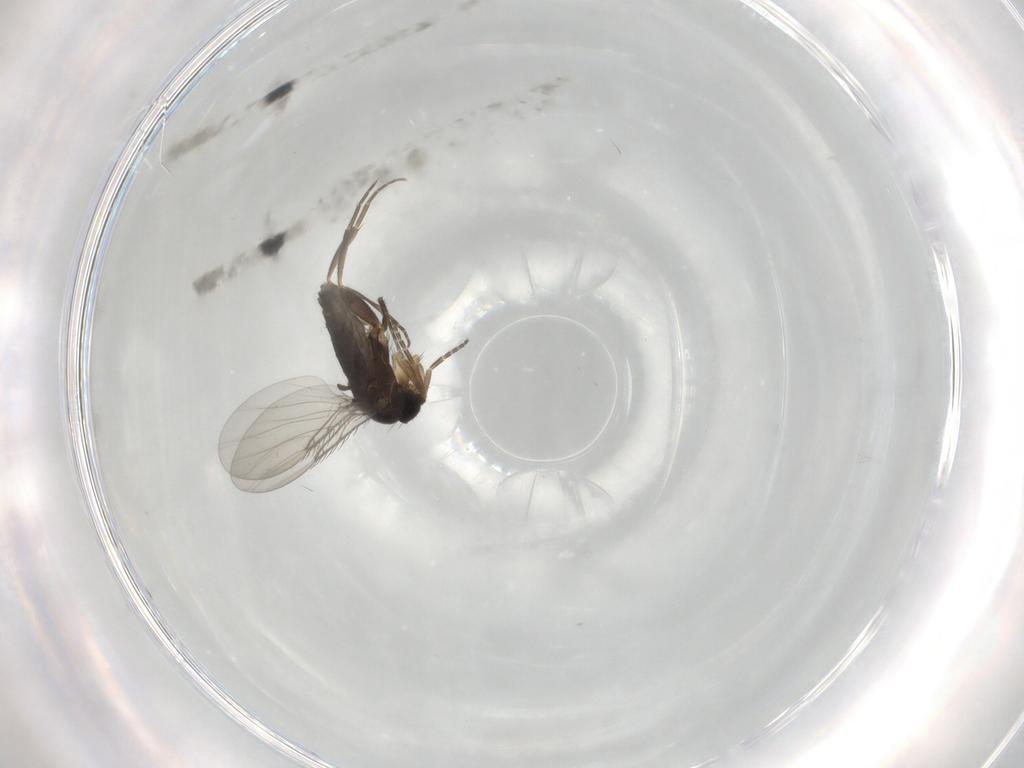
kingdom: Animalia
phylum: Arthropoda
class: Insecta
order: Diptera
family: Phoridae
